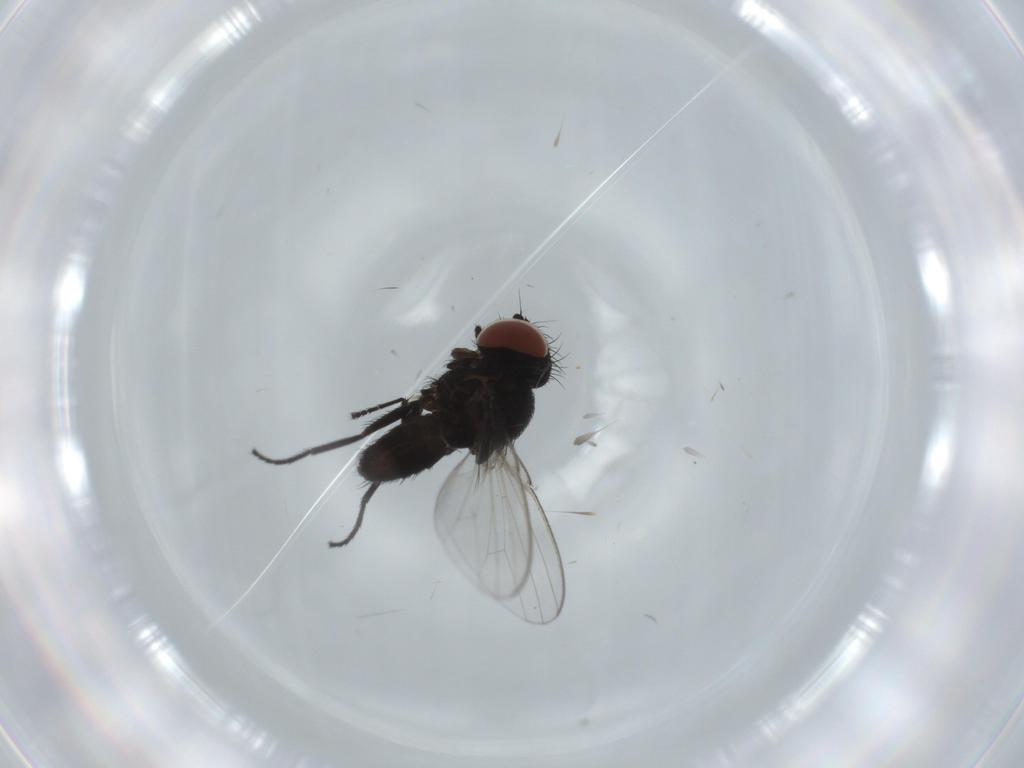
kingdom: Animalia
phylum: Arthropoda
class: Insecta
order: Diptera
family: Milichiidae
